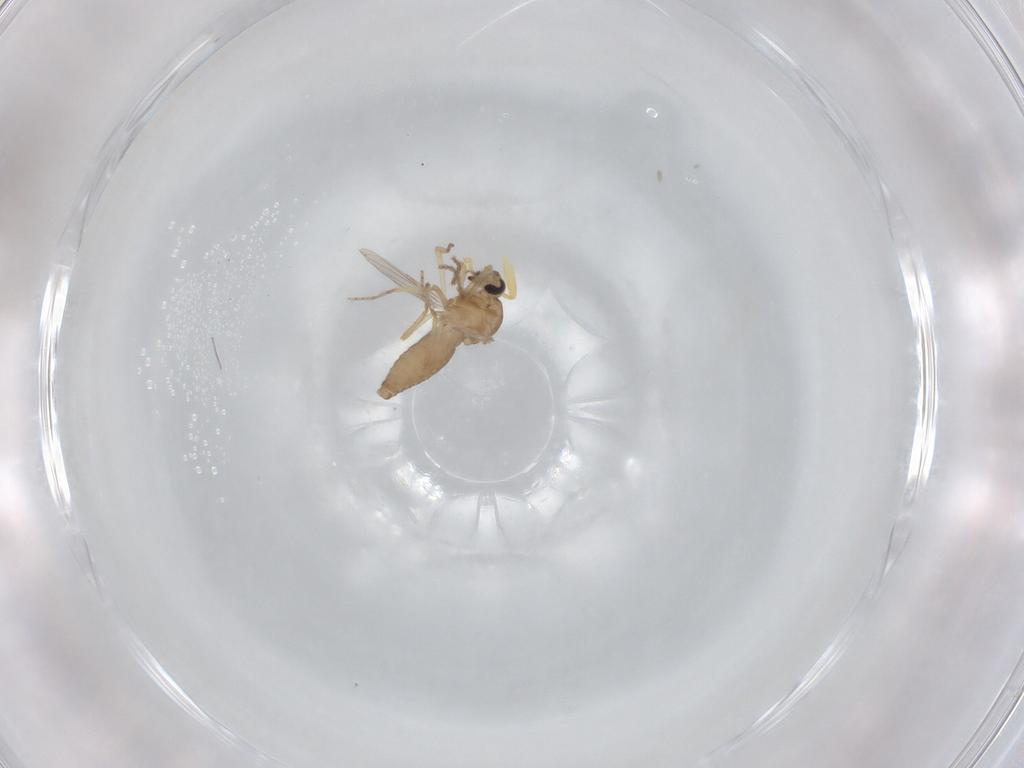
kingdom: Animalia
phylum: Arthropoda
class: Insecta
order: Diptera
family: Ceratopogonidae
